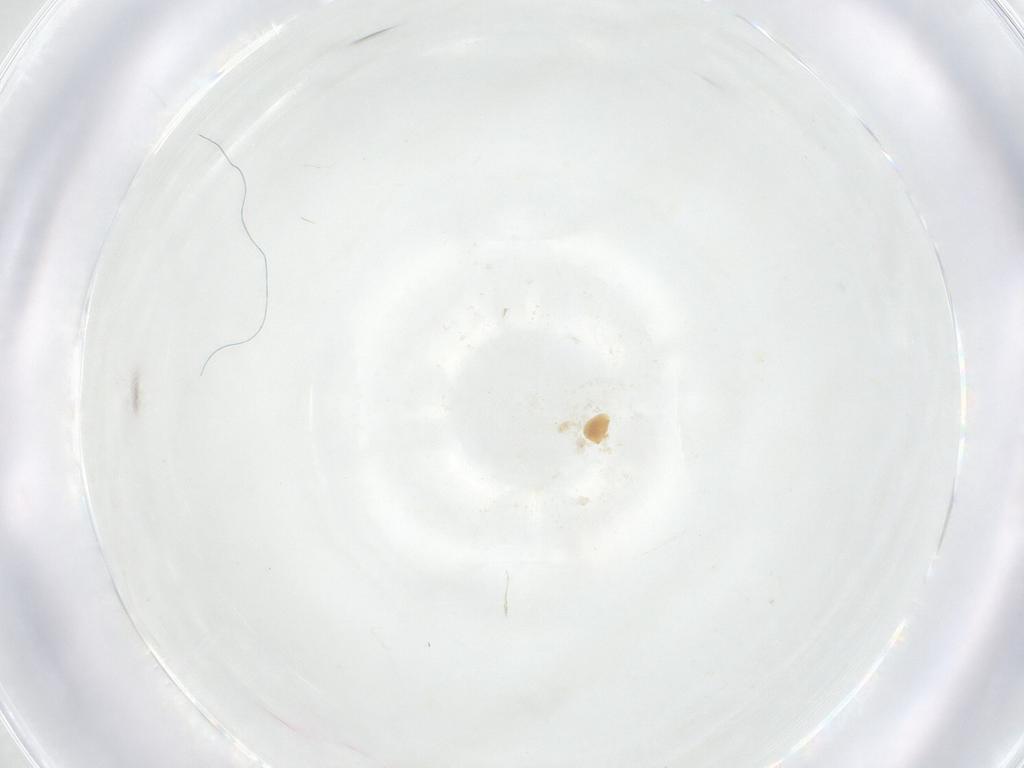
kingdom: Animalia
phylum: Arthropoda
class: Insecta
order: Diptera
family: Fergusoninidae
